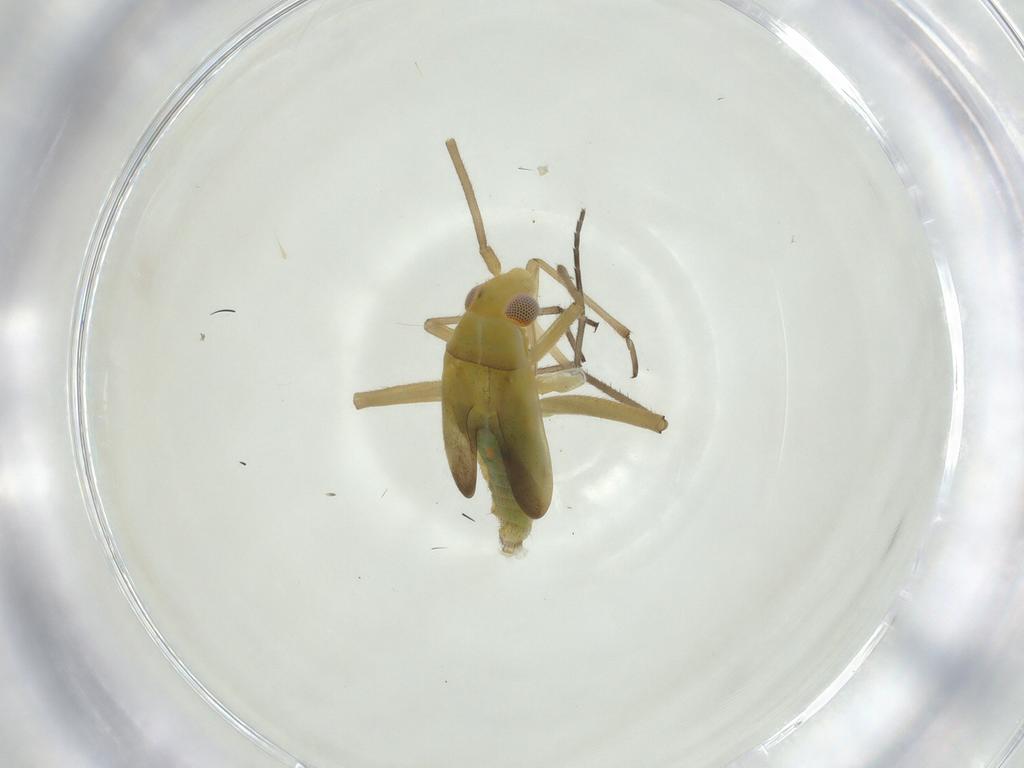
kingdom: Animalia
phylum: Arthropoda
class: Insecta
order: Hemiptera
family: Miridae
